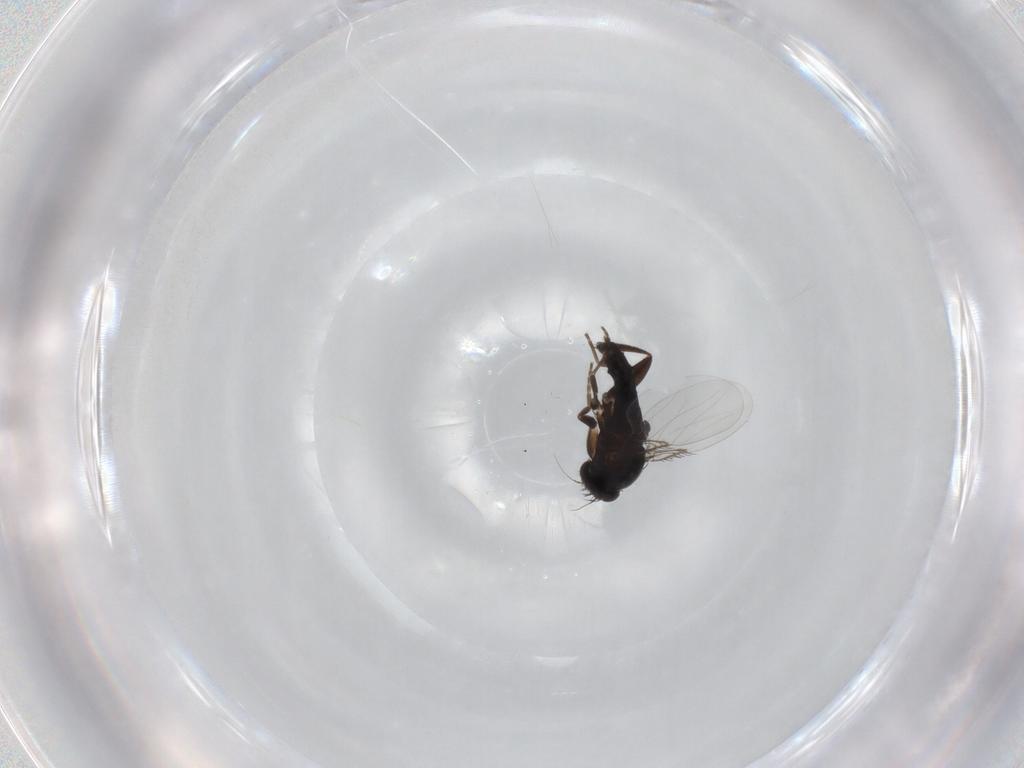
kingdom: Animalia
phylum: Arthropoda
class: Insecta
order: Diptera
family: Phoridae
